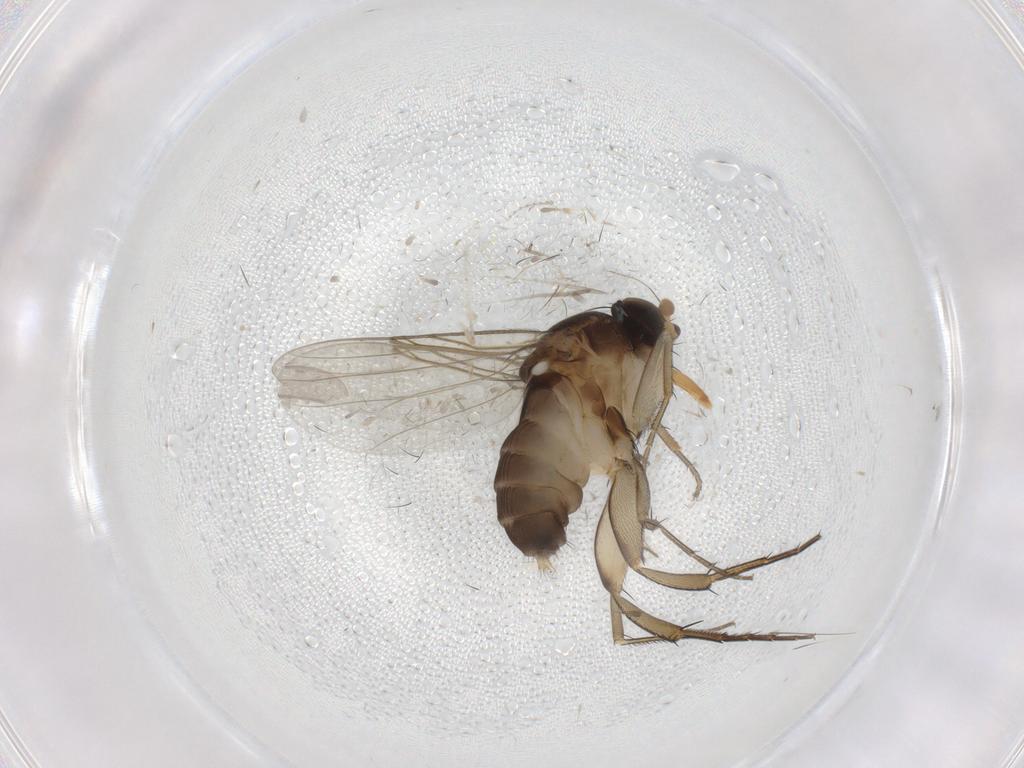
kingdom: Animalia
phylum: Arthropoda
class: Insecta
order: Diptera
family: Phoridae
